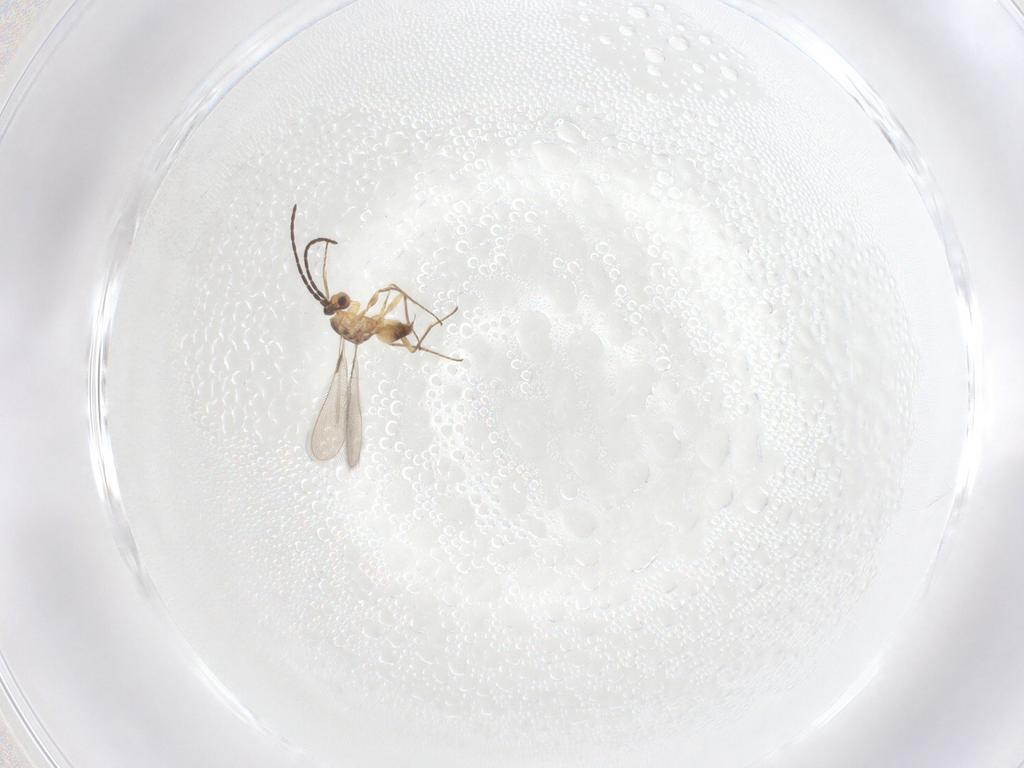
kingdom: Animalia
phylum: Arthropoda
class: Insecta
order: Hymenoptera
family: Mymaridae
